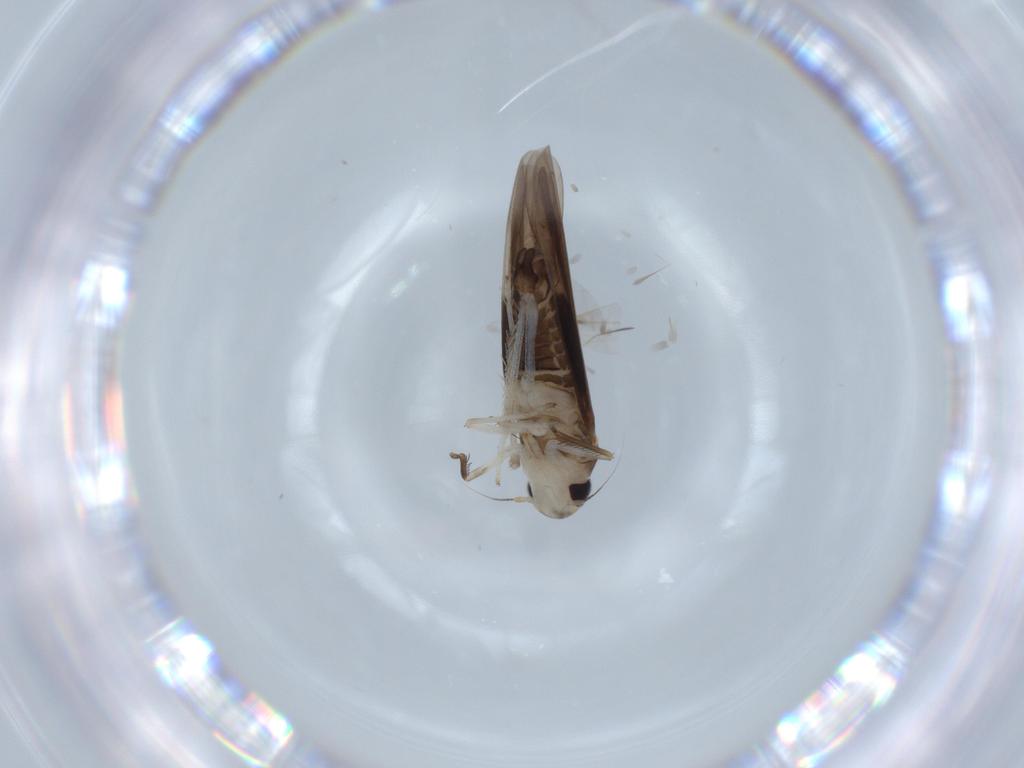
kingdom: Animalia
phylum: Arthropoda
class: Insecta
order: Hemiptera
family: Cicadellidae
